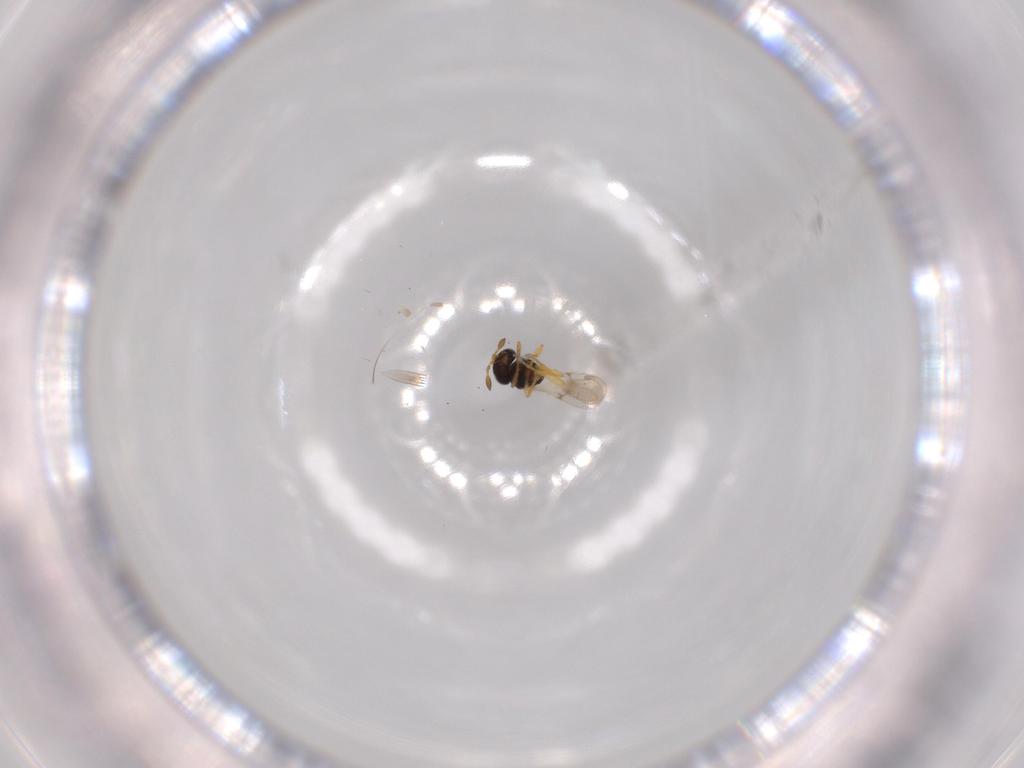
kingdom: Animalia
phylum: Arthropoda
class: Insecta
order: Hymenoptera
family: Scelionidae
